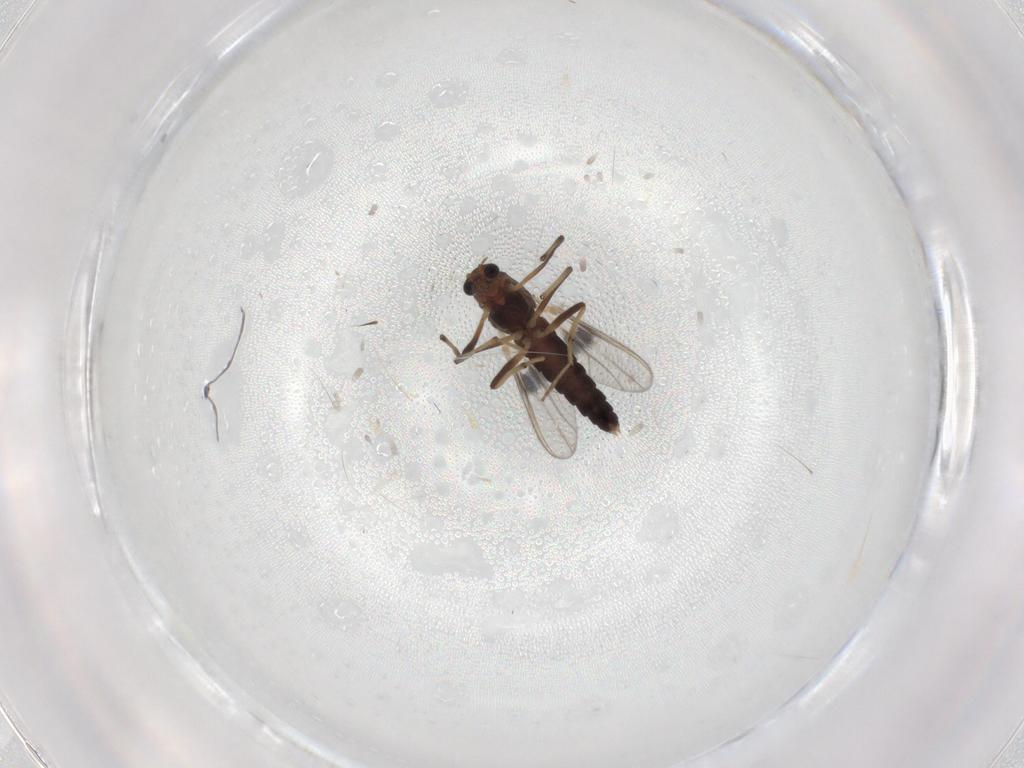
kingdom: Animalia
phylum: Arthropoda
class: Insecta
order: Diptera
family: Chironomidae
